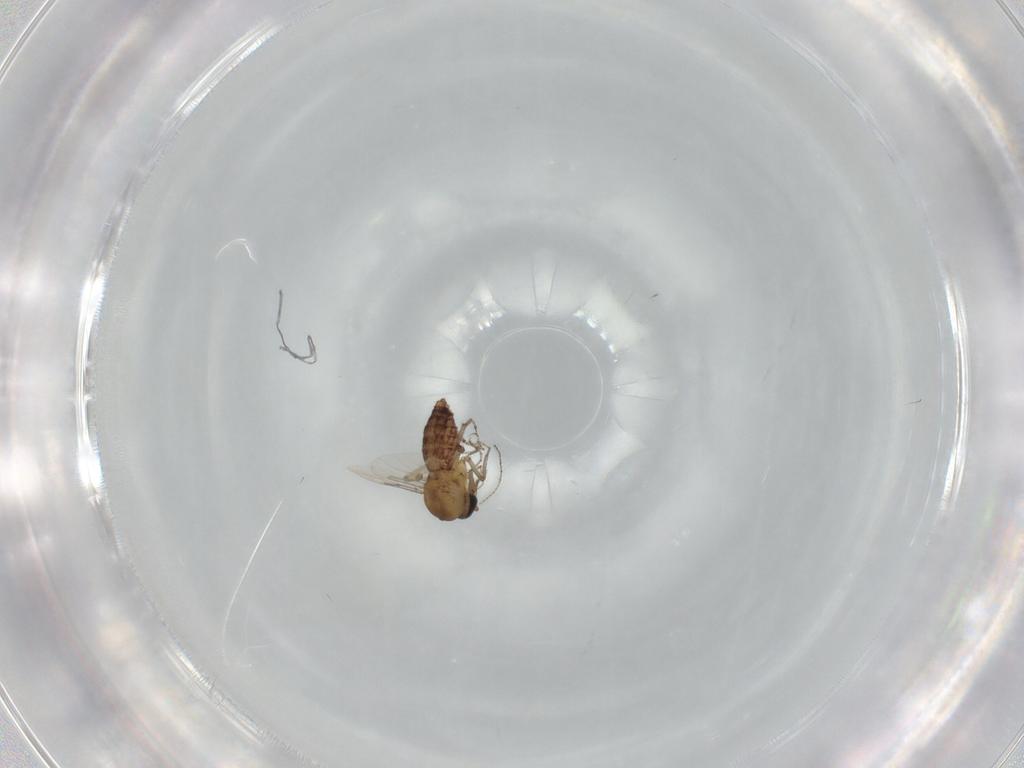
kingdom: Animalia
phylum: Arthropoda
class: Insecta
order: Diptera
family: Ceratopogonidae
